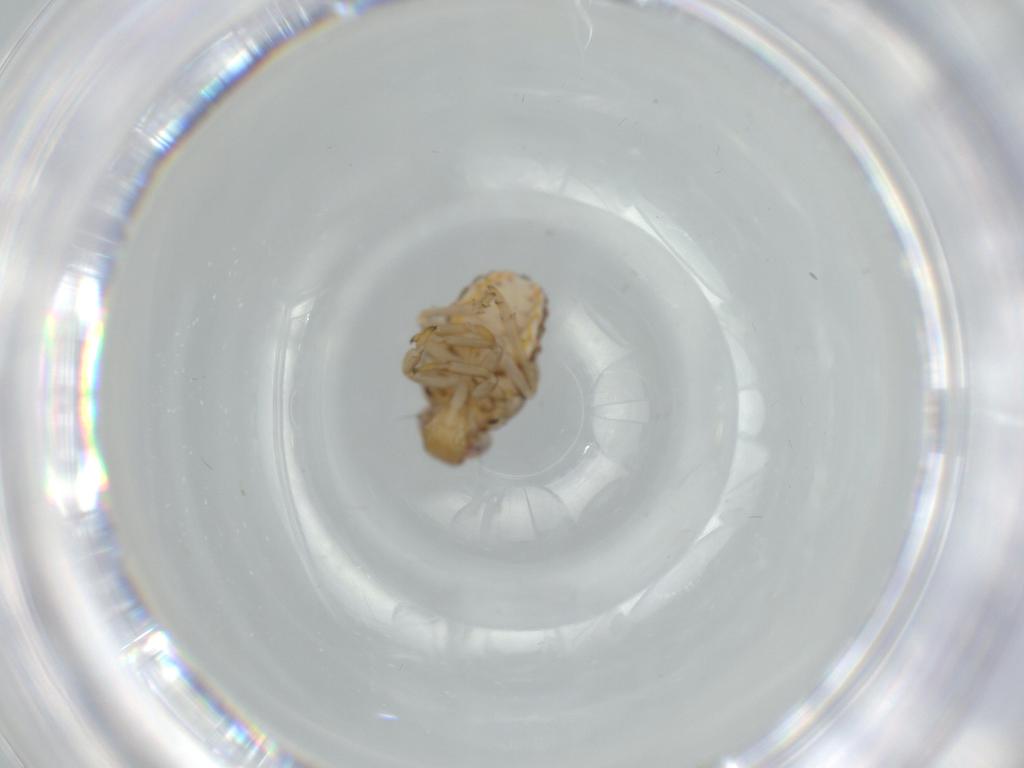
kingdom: Animalia
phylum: Arthropoda
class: Insecta
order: Hemiptera
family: Issidae
